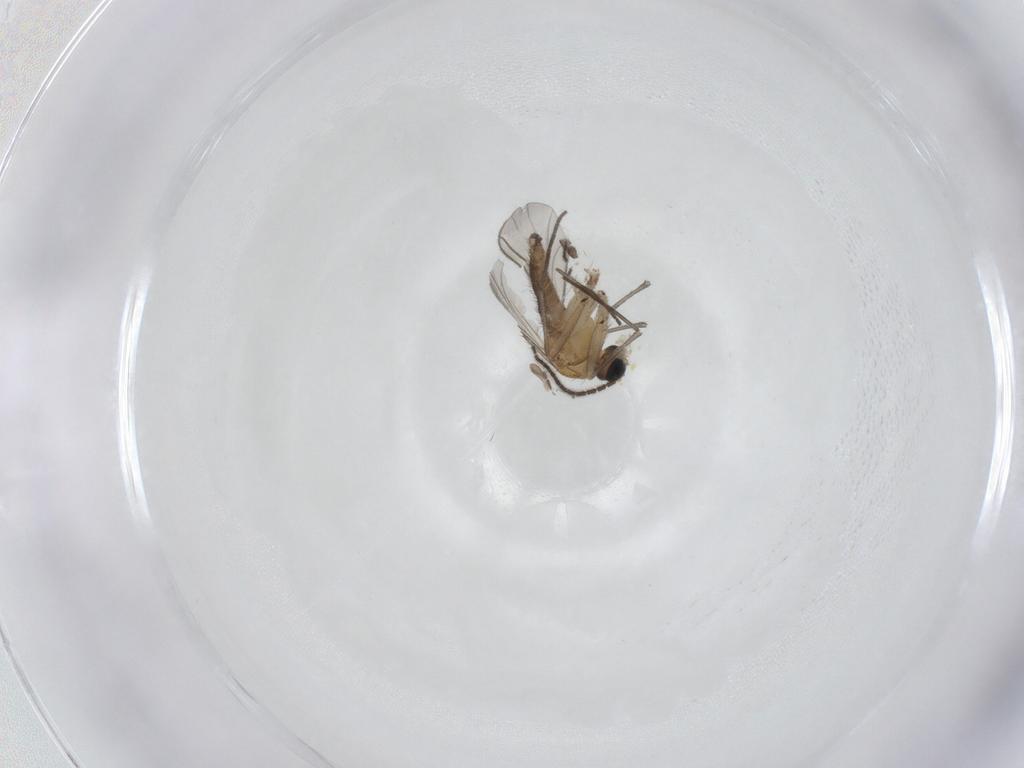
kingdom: Animalia
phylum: Arthropoda
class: Insecta
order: Diptera
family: Sciaridae
